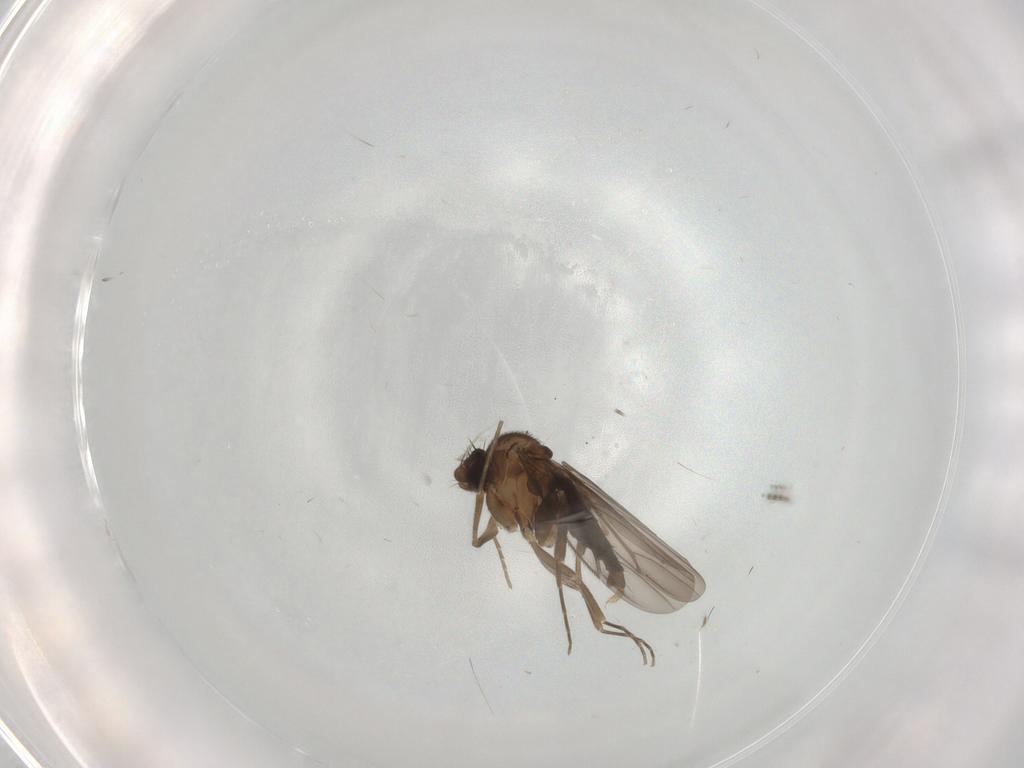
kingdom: Animalia
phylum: Arthropoda
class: Insecta
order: Diptera
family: Phoridae
